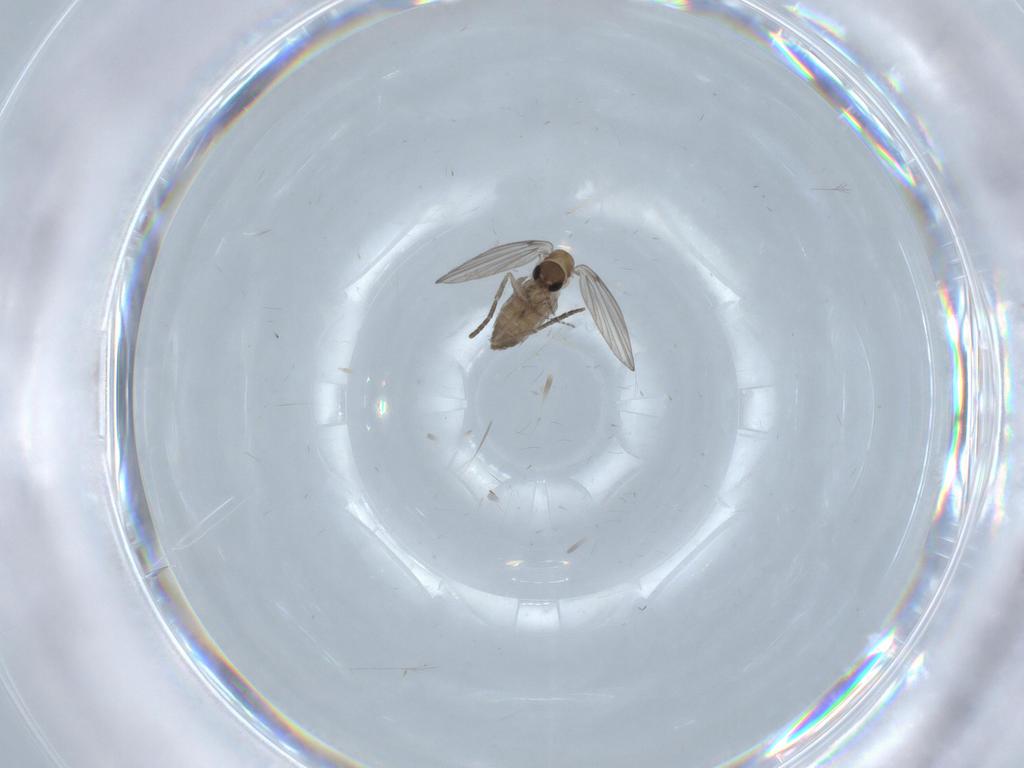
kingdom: Animalia
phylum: Arthropoda
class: Insecta
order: Diptera
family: Psychodidae
